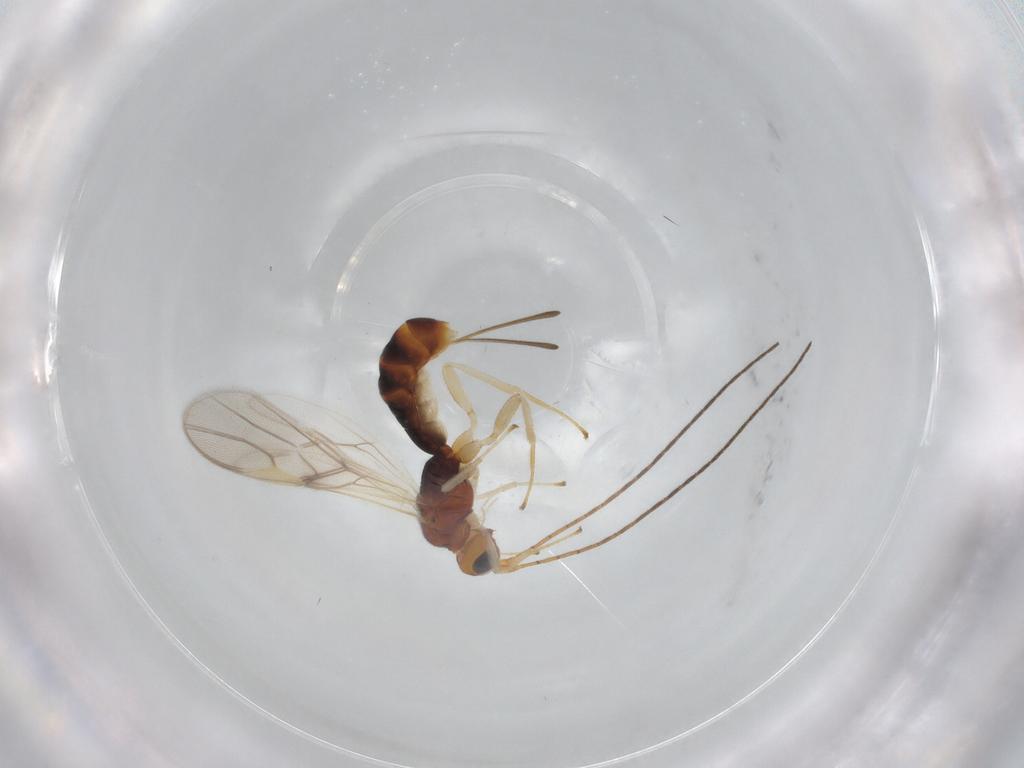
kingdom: Animalia
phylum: Arthropoda
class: Insecta
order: Hymenoptera
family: Braconidae
